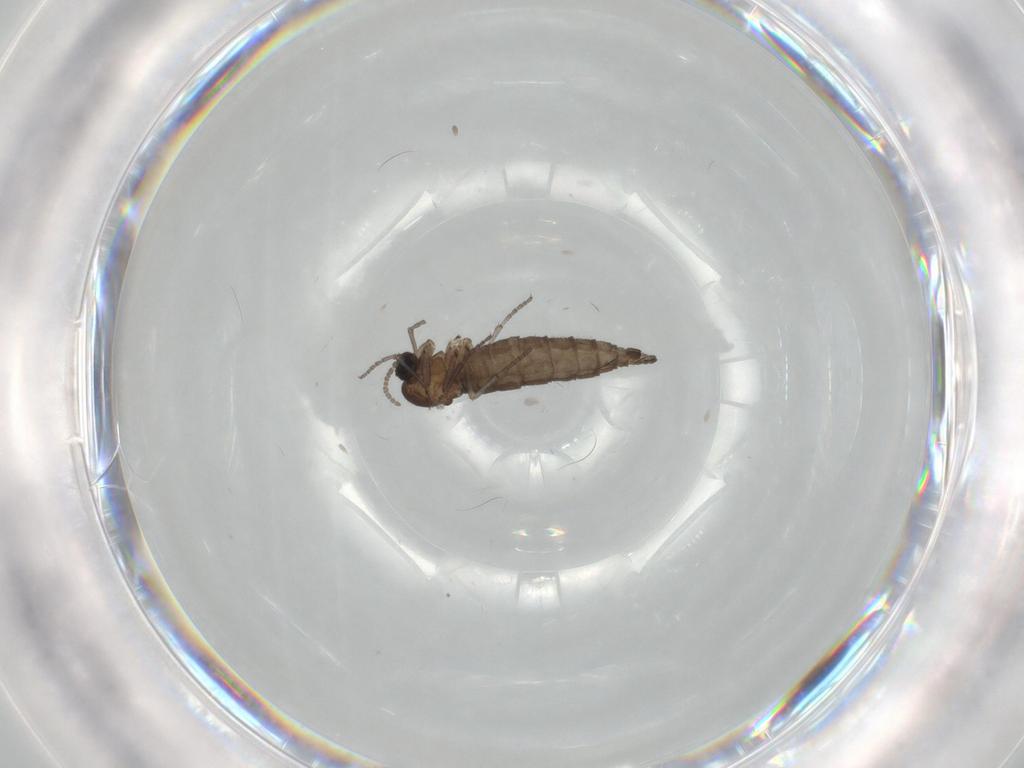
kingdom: Animalia
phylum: Arthropoda
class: Insecta
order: Diptera
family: Sciaridae
